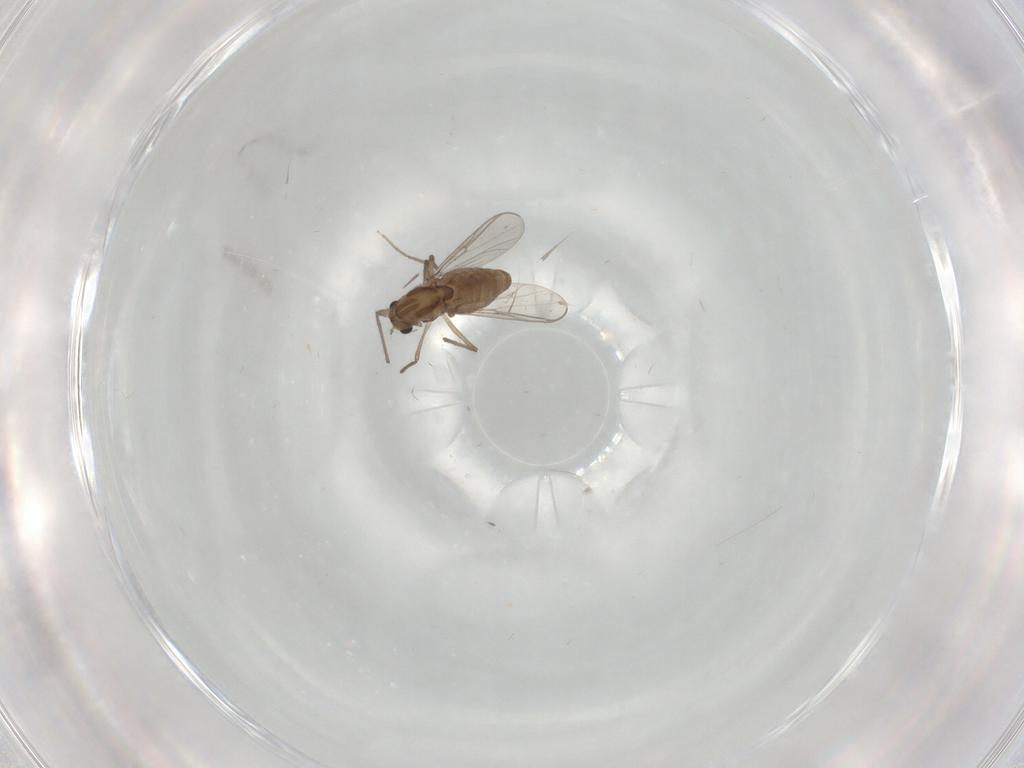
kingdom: Animalia
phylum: Arthropoda
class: Insecta
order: Diptera
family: Chironomidae
